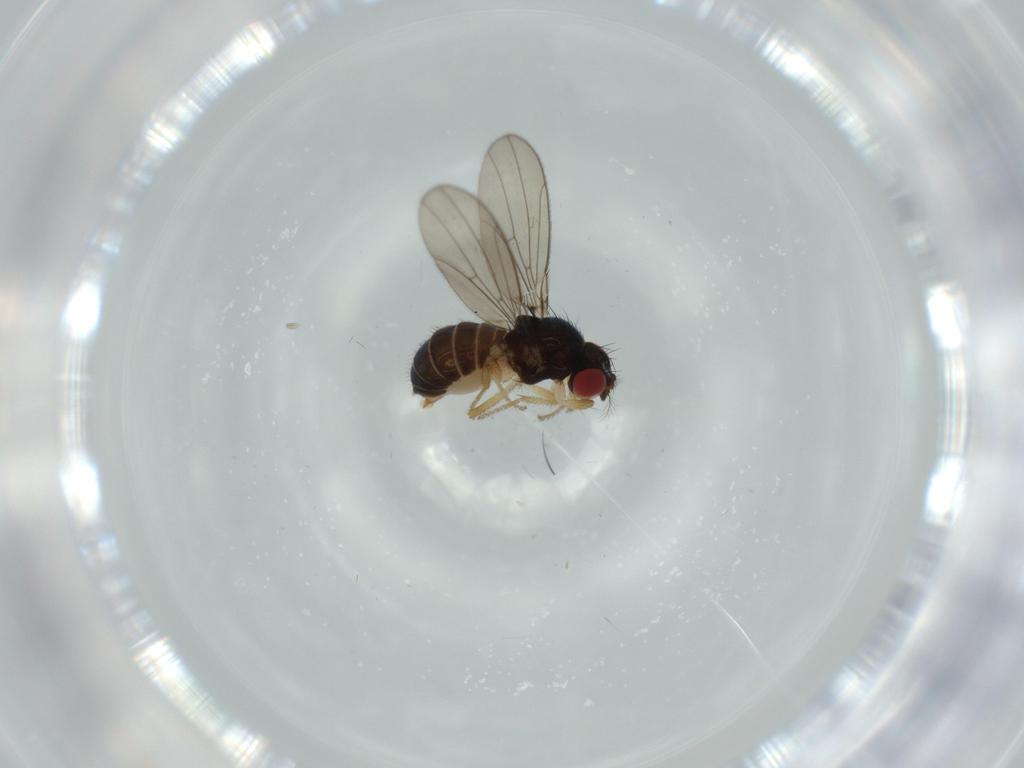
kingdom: Animalia
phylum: Arthropoda
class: Insecta
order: Diptera
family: Drosophilidae
